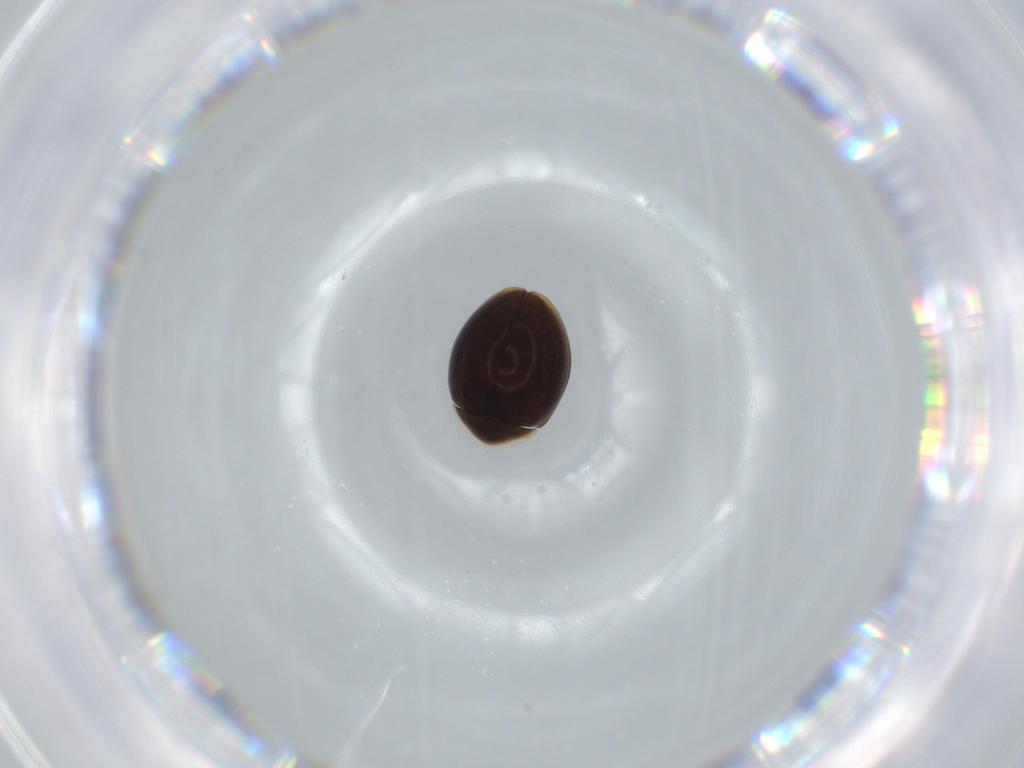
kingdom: Animalia
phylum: Arthropoda
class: Insecta
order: Coleoptera
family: Corylophidae
